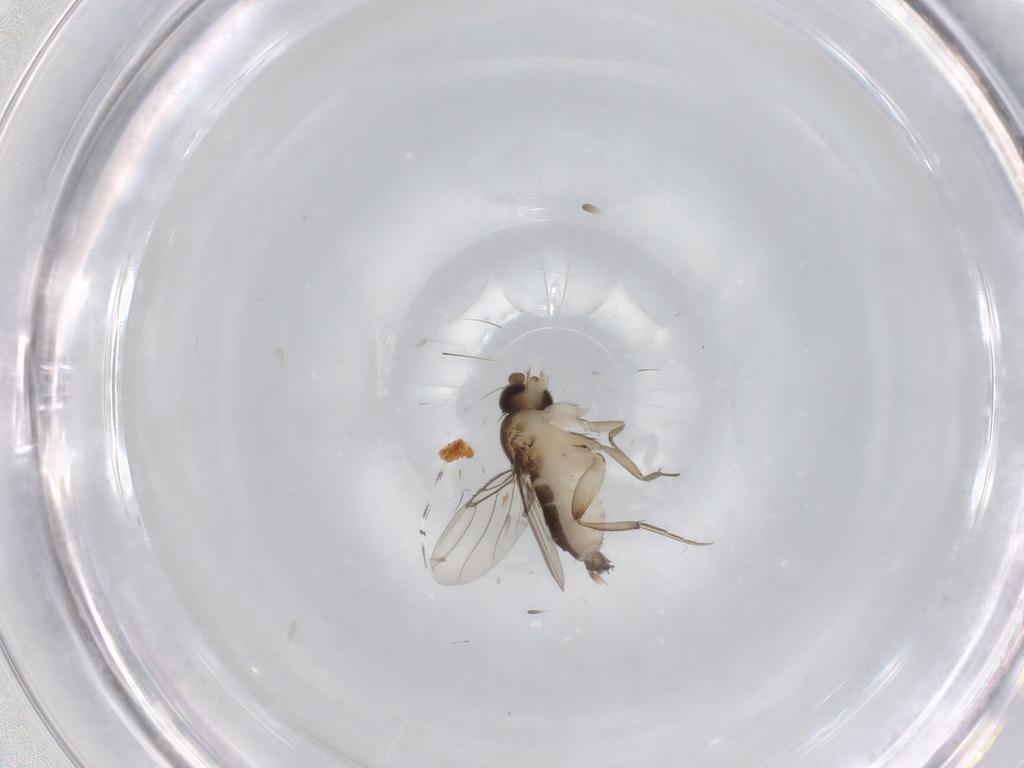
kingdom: Animalia
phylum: Arthropoda
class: Insecta
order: Diptera
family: Phoridae
